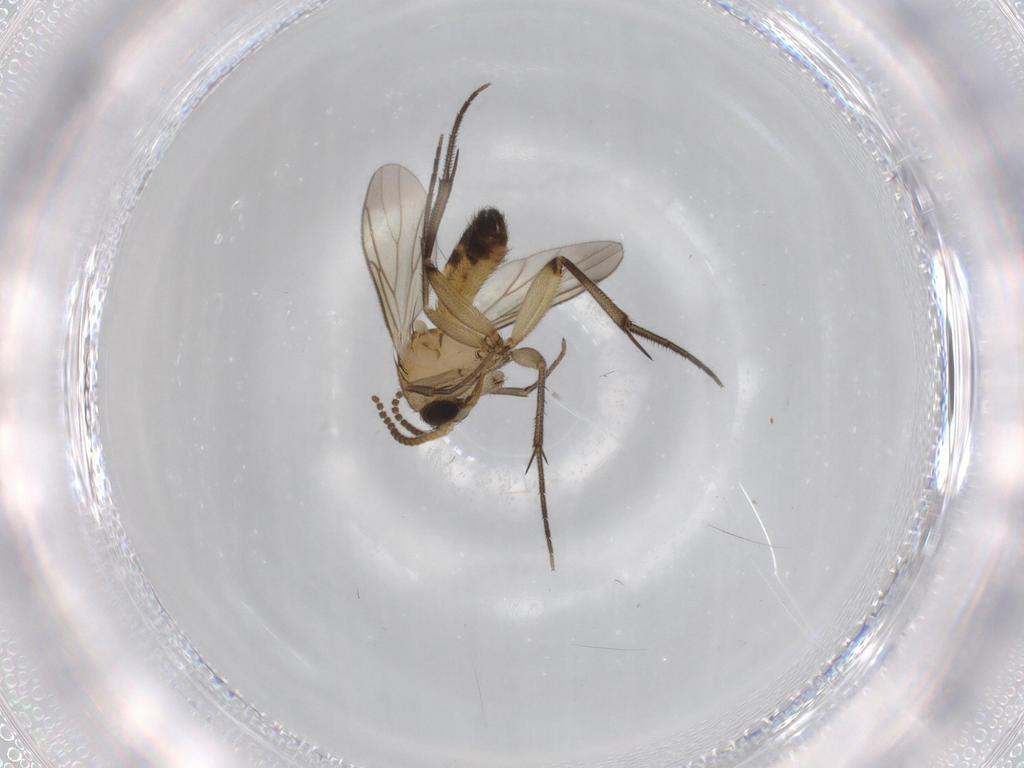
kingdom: Animalia
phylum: Arthropoda
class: Insecta
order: Diptera
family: Mycetophilidae
